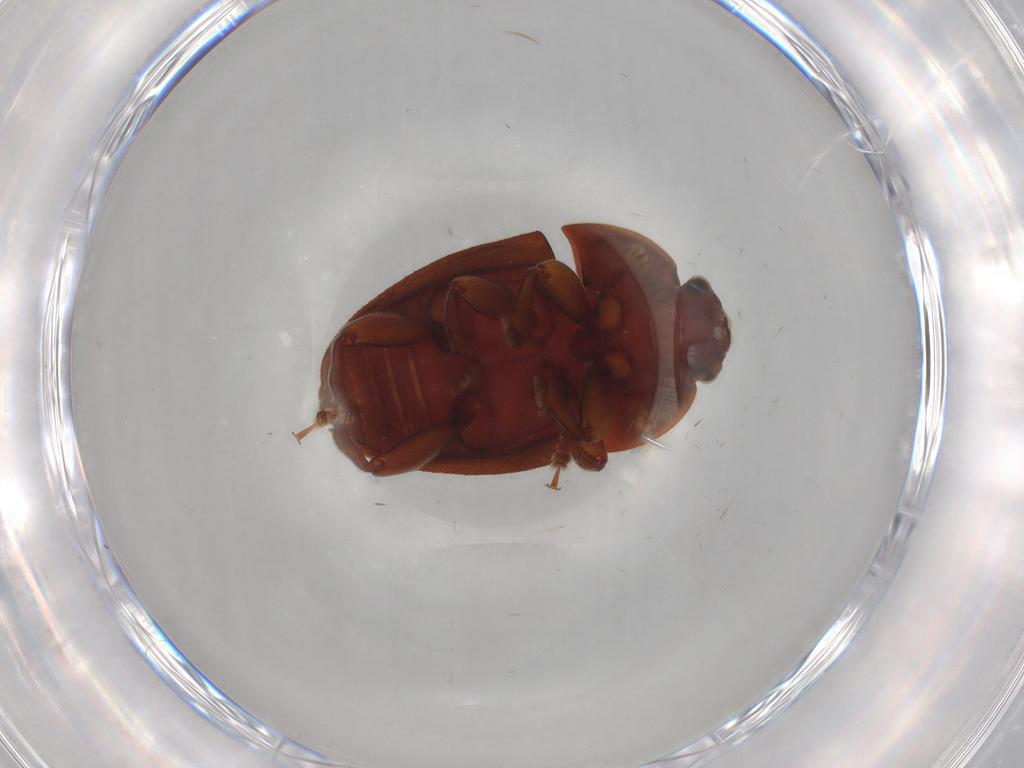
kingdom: Animalia
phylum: Arthropoda
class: Insecta
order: Coleoptera
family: Nitidulidae
